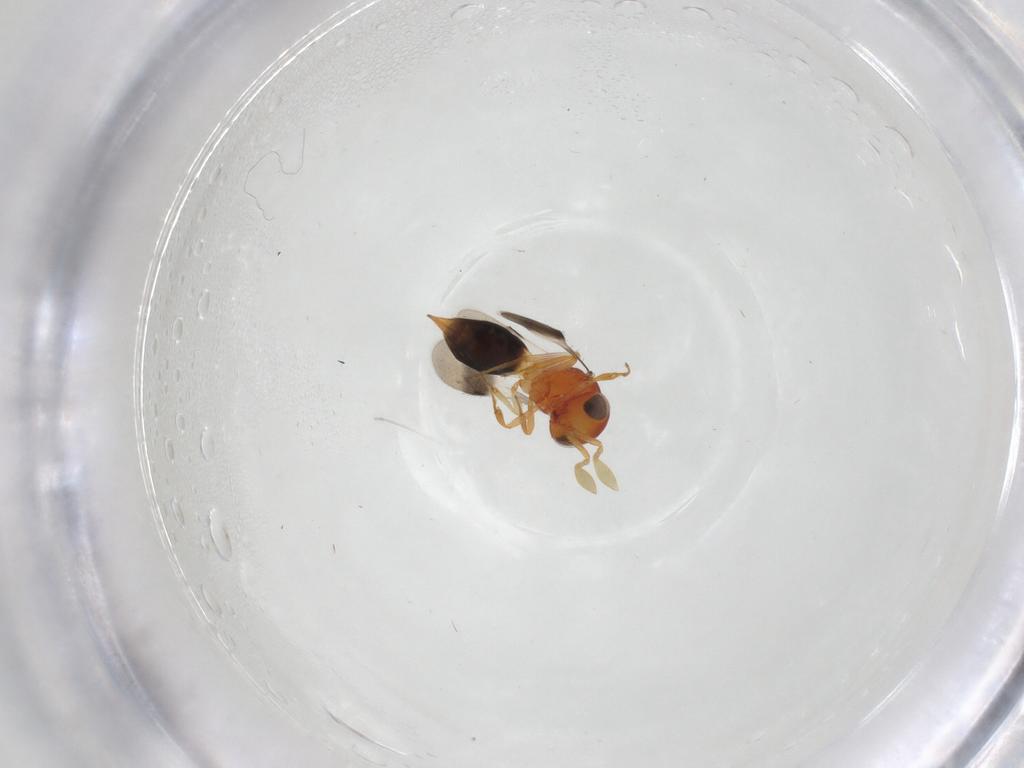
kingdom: Animalia
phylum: Arthropoda
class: Insecta
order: Hymenoptera
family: Scelionidae
